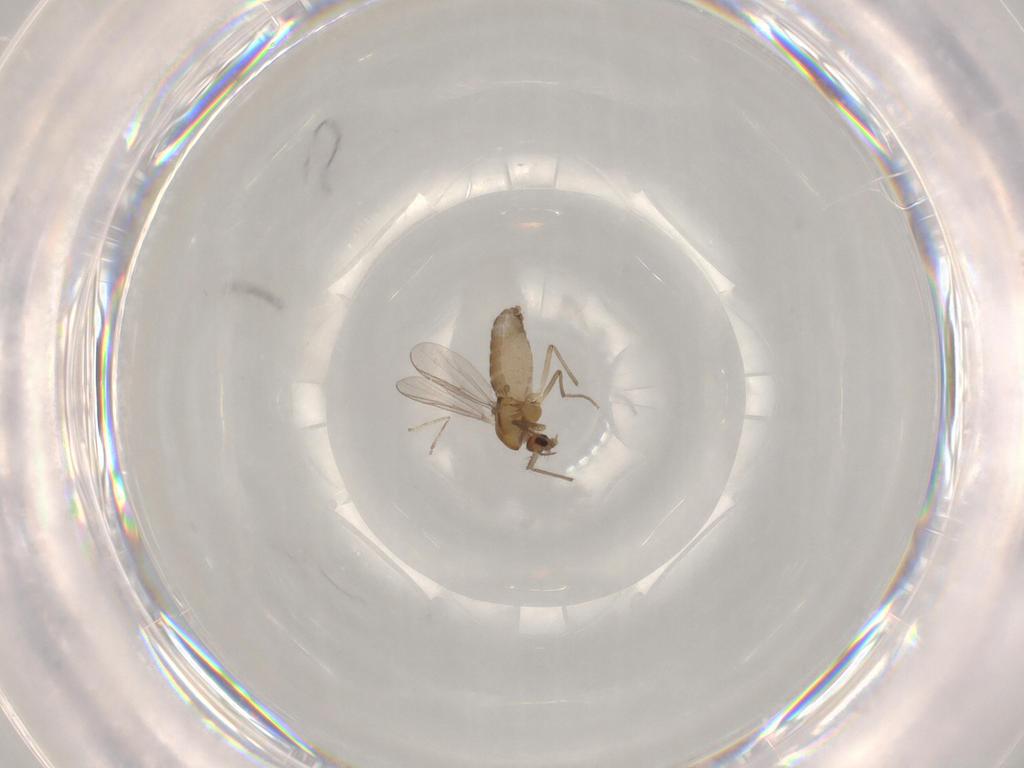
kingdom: Animalia
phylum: Arthropoda
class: Insecta
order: Diptera
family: Chironomidae
